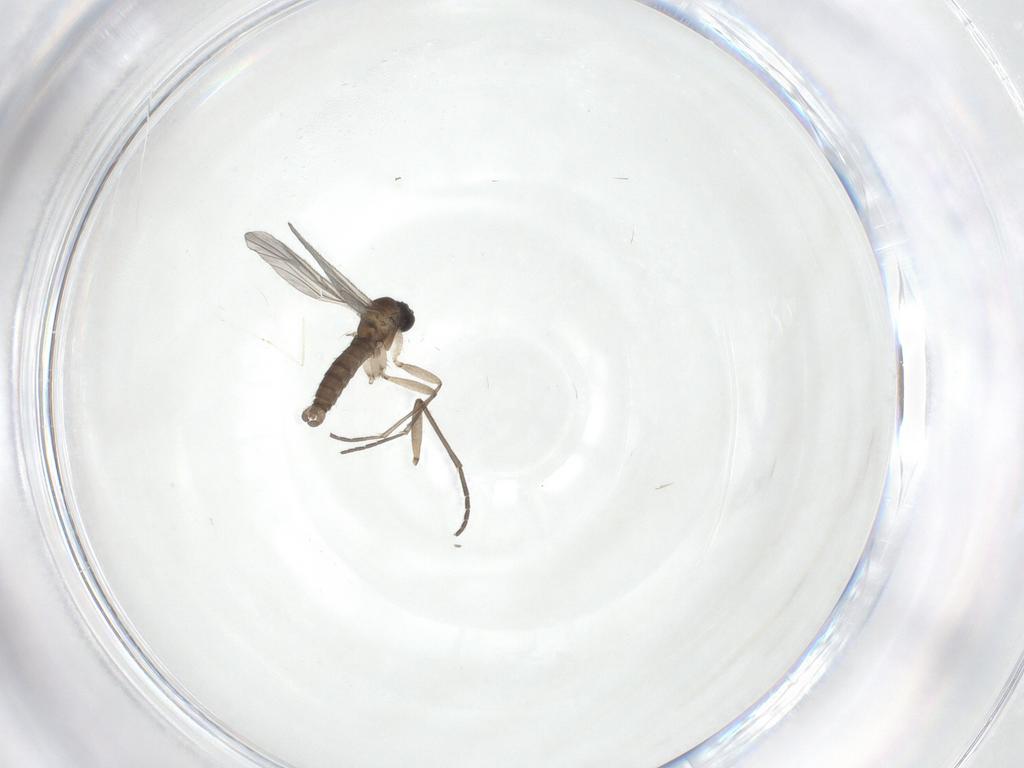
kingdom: Animalia
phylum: Arthropoda
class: Insecta
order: Diptera
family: Sciaridae
